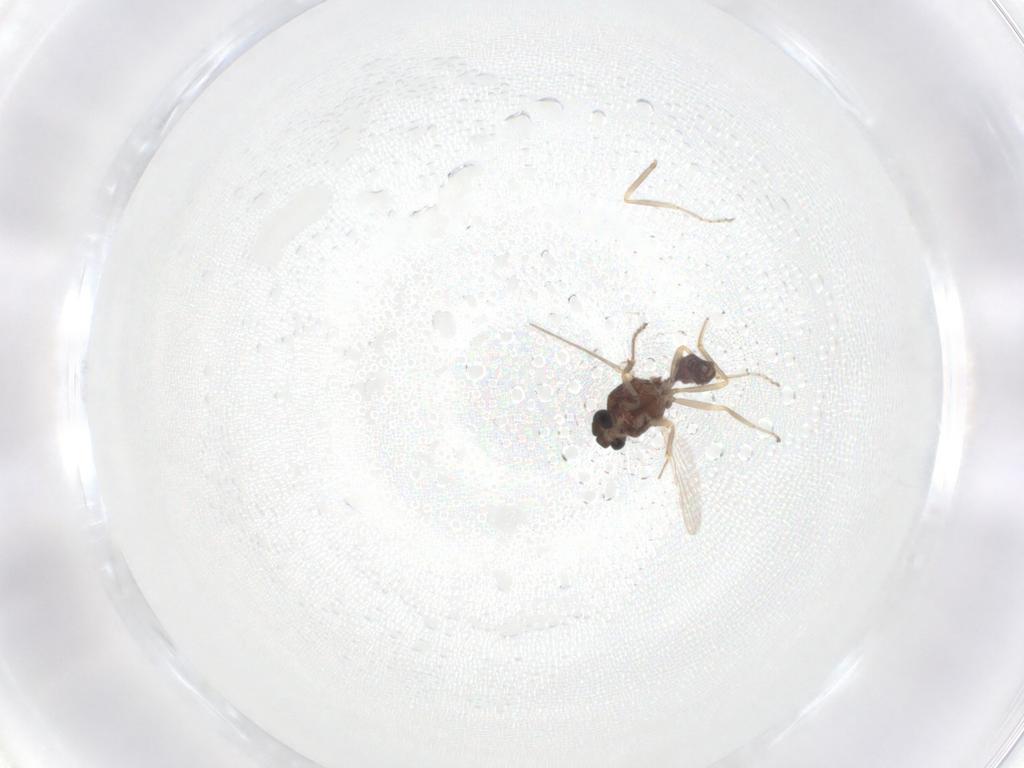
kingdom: Animalia
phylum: Arthropoda
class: Insecta
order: Diptera
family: Ceratopogonidae
